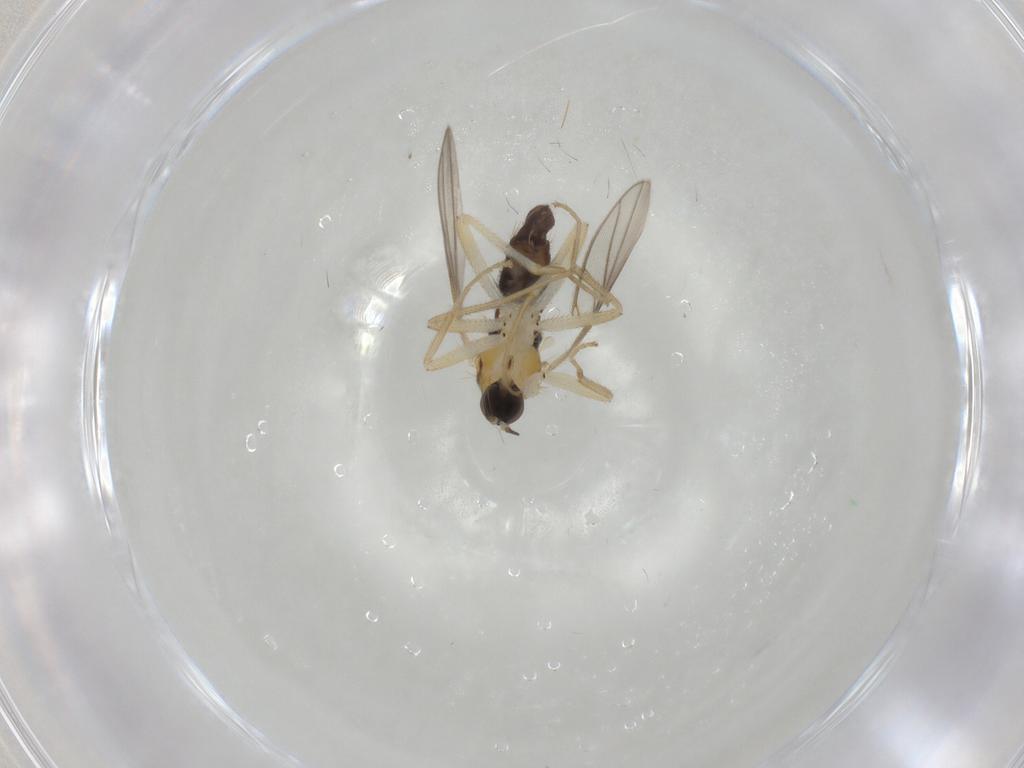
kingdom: Animalia
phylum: Arthropoda
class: Insecta
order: Diptera
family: Hybotidae
